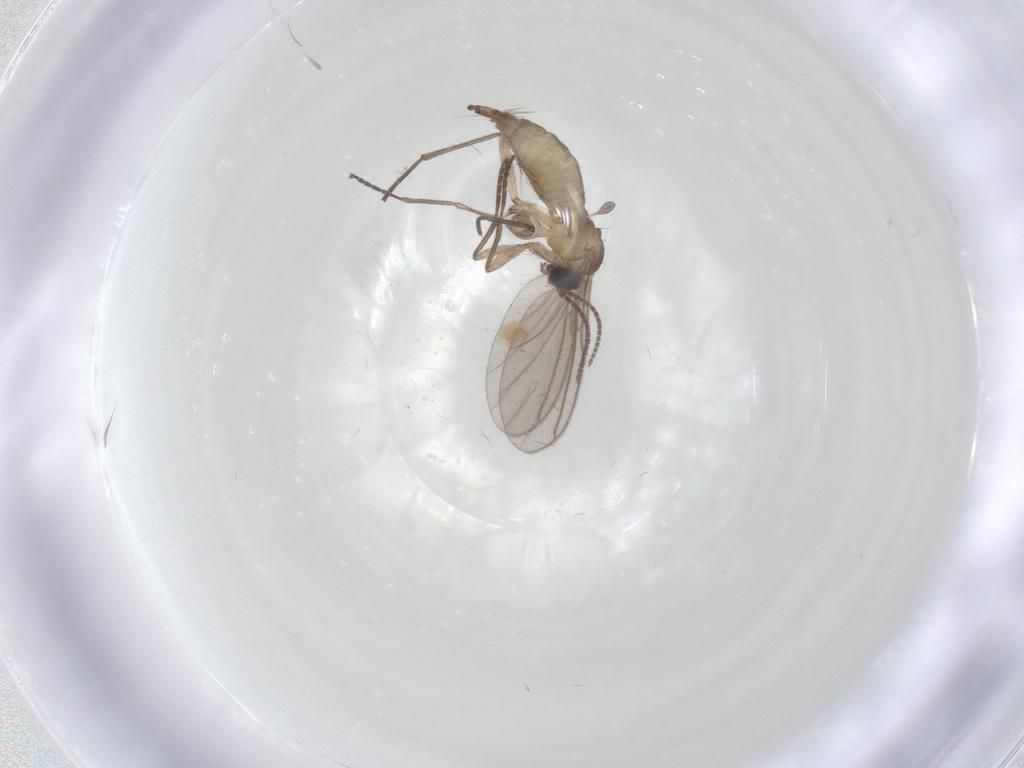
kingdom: Animalia
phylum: Arthropoda
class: Insecta
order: Diptera
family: Sciaridae
